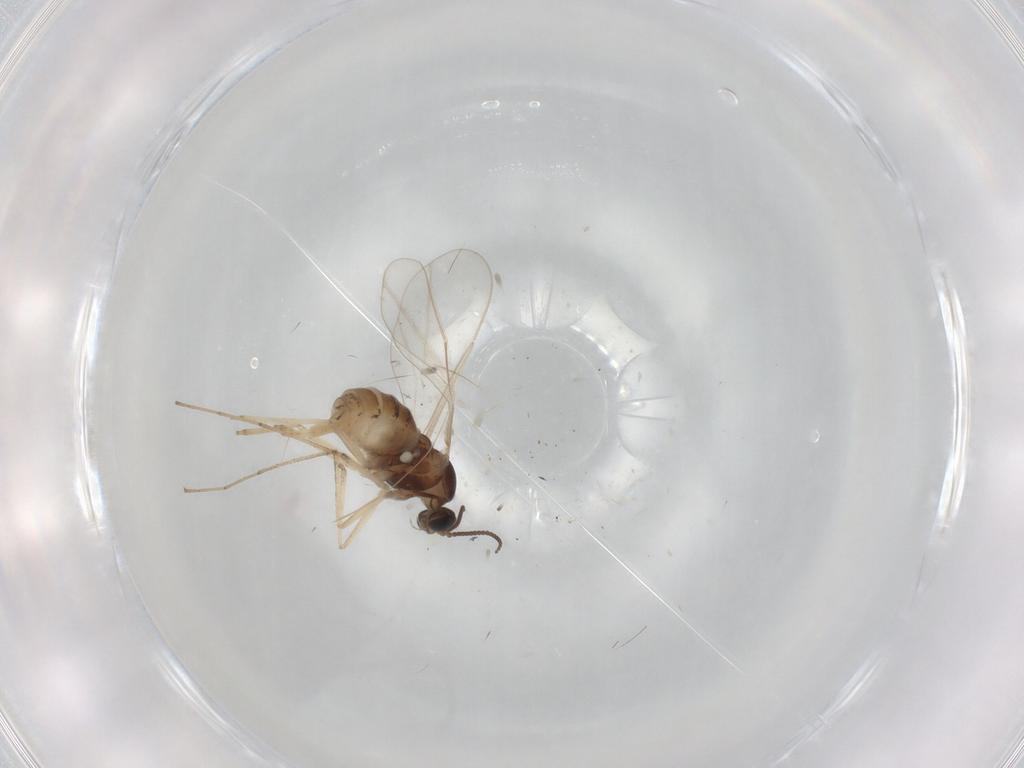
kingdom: Animalia
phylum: Arthropoda
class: Insecta
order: Diptera
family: Cecidomyiidae
